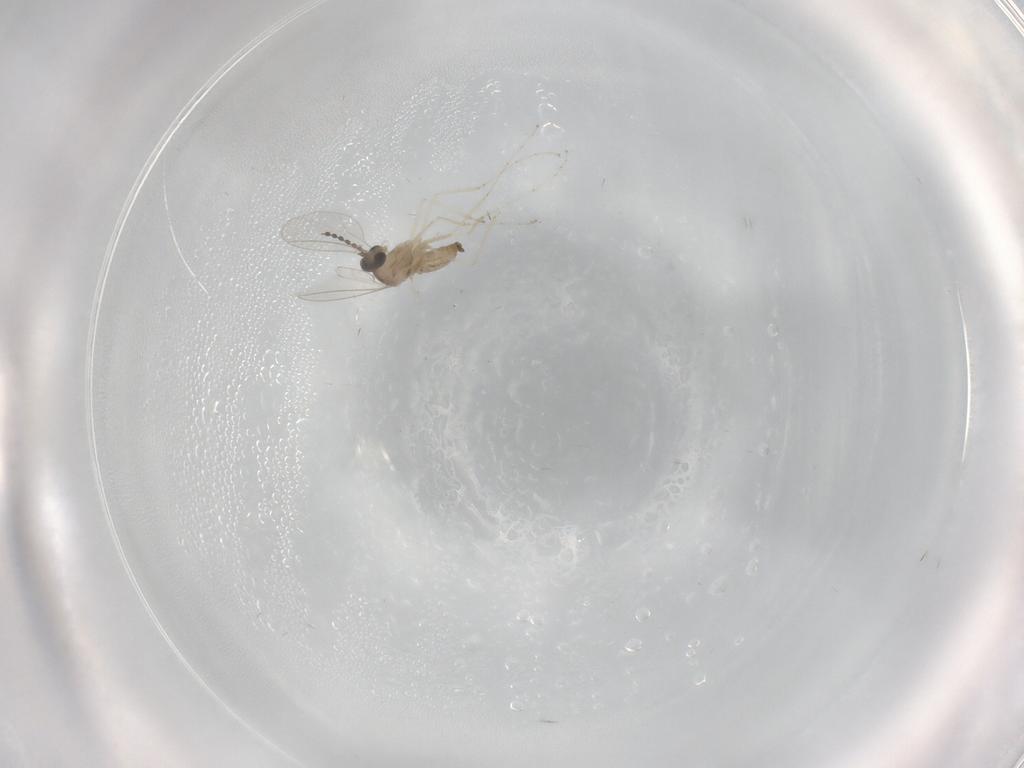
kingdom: Animalia
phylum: Arthropoda
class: Insecta
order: Diptera
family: Cecidomyiidae
